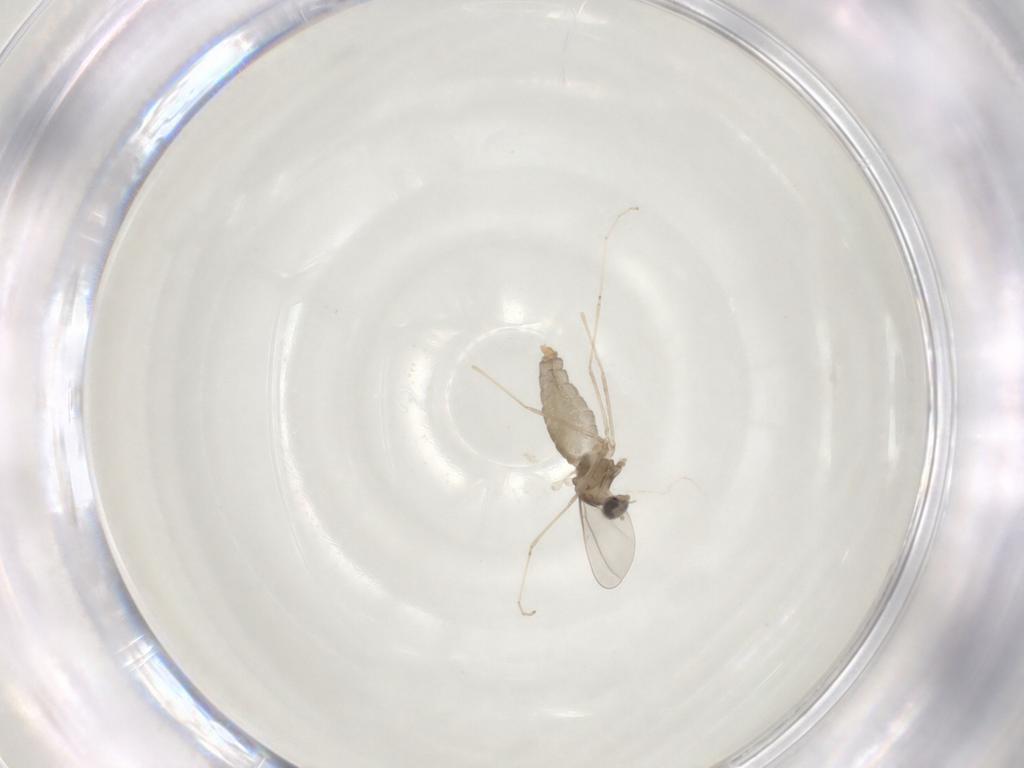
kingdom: Animalia
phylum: Arthropoda
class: Insecta
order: Diptera
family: Cecidomyiidae
